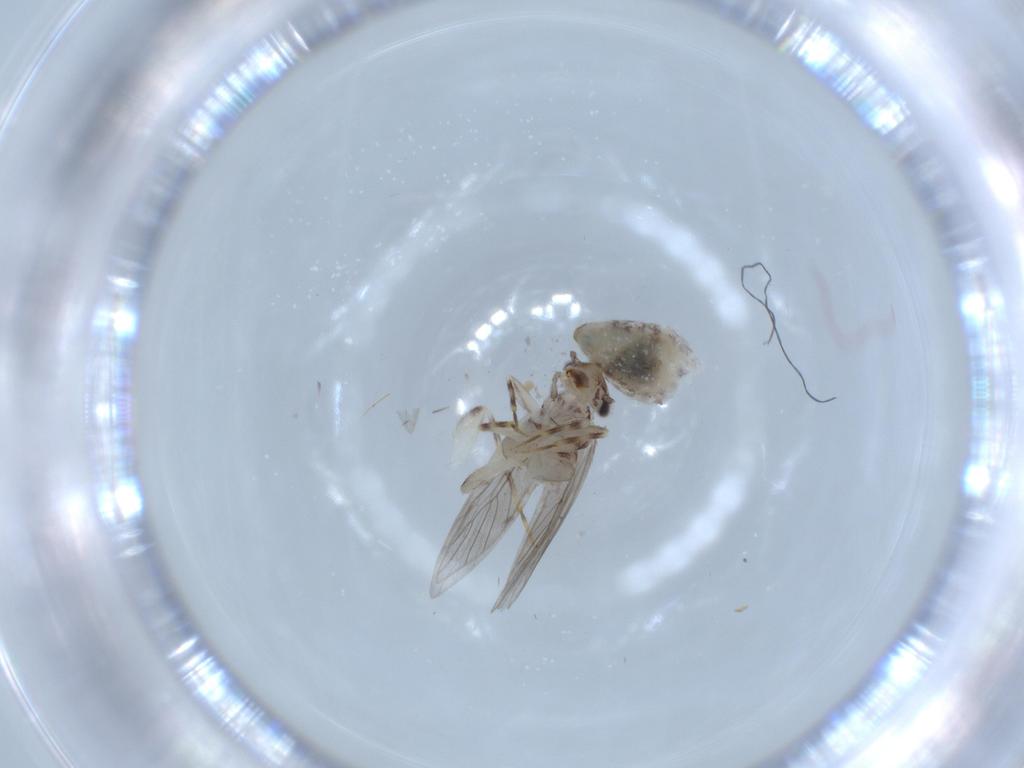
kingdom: Animalia
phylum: Arthropoda
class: Insecta
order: Psocodea
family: Lepidopsocidae
